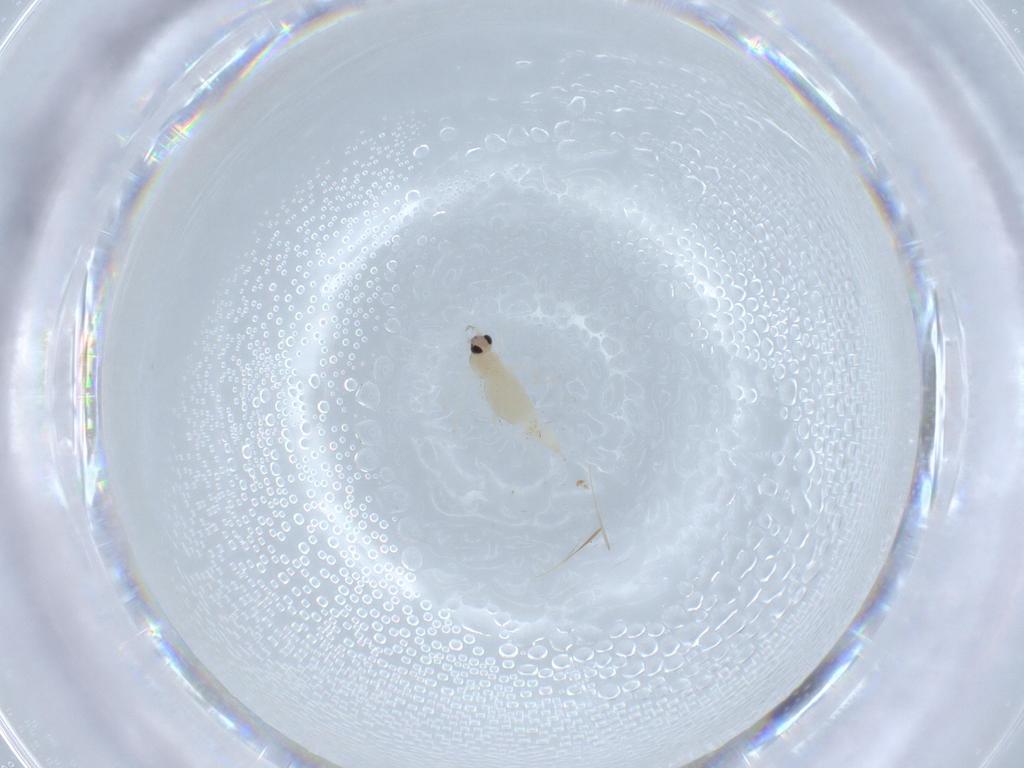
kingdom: Animalia
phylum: Arthropoda
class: Insecta
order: Diptera
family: Cecidomyiidae
